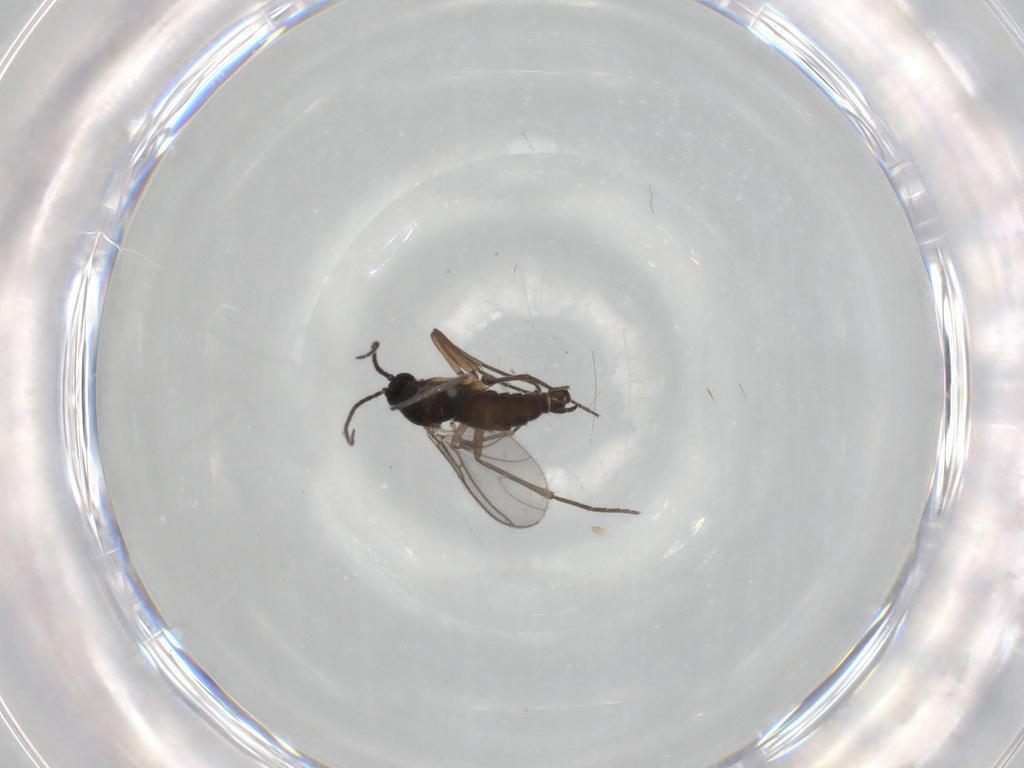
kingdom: Animalia
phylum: Arthropoda
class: Insecta
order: Diptera
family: Sciaridae
